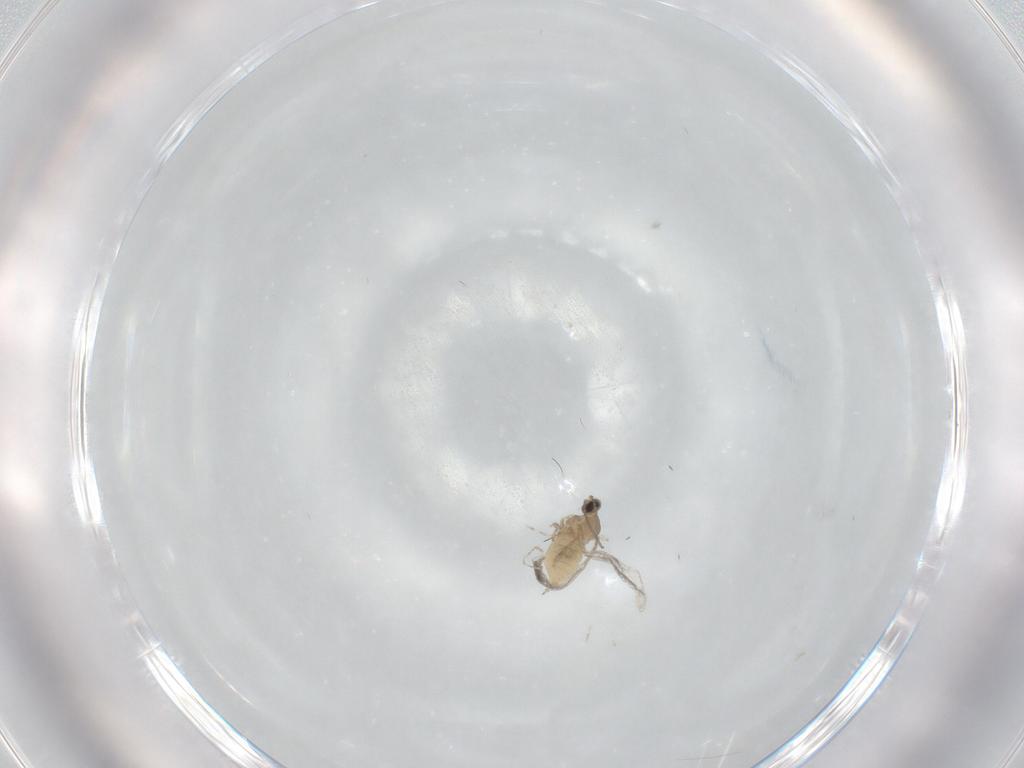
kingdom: Animalia
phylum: Arthropoda
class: Insecta
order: Diptera
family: Cecidomyiidae
